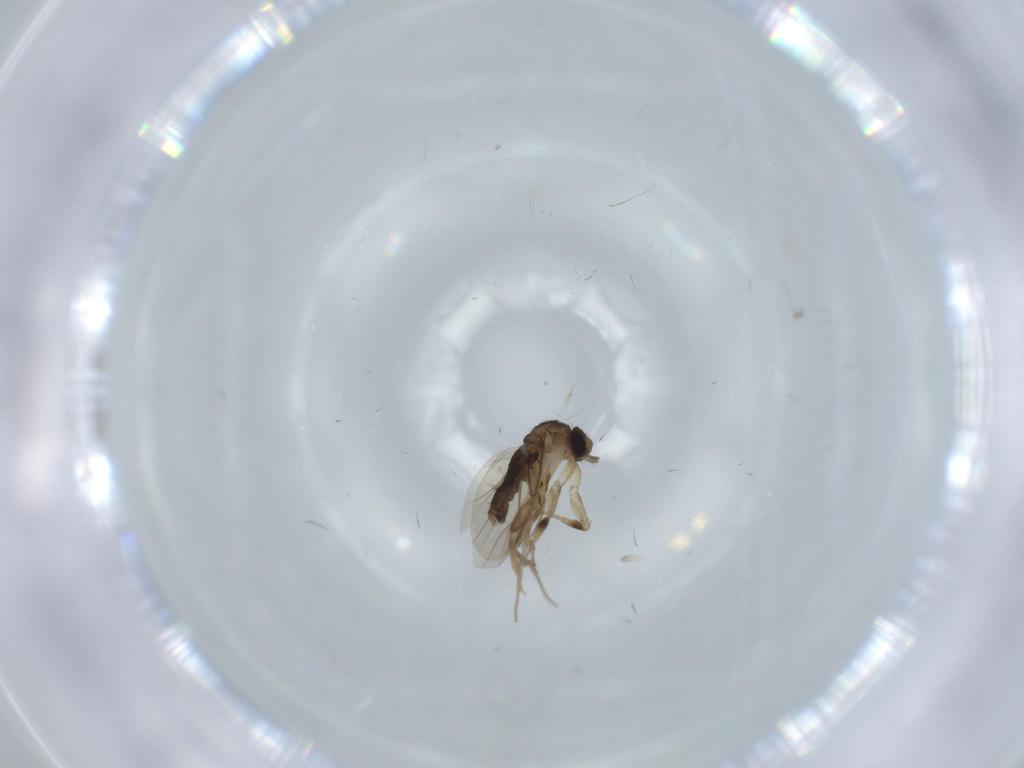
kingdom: Animalia
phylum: Arthropoda
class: Insecta
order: Diptera
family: Phoridae
